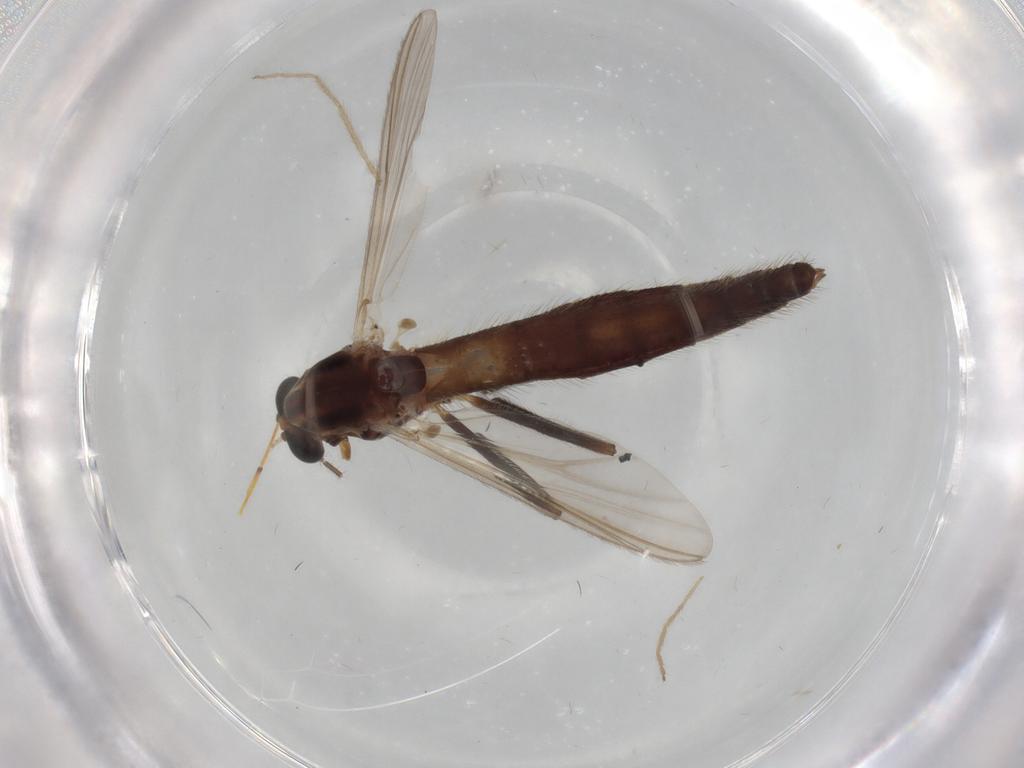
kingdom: Animalia
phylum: Arthropoda
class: Insecta
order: Diptera
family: Chironomidae
